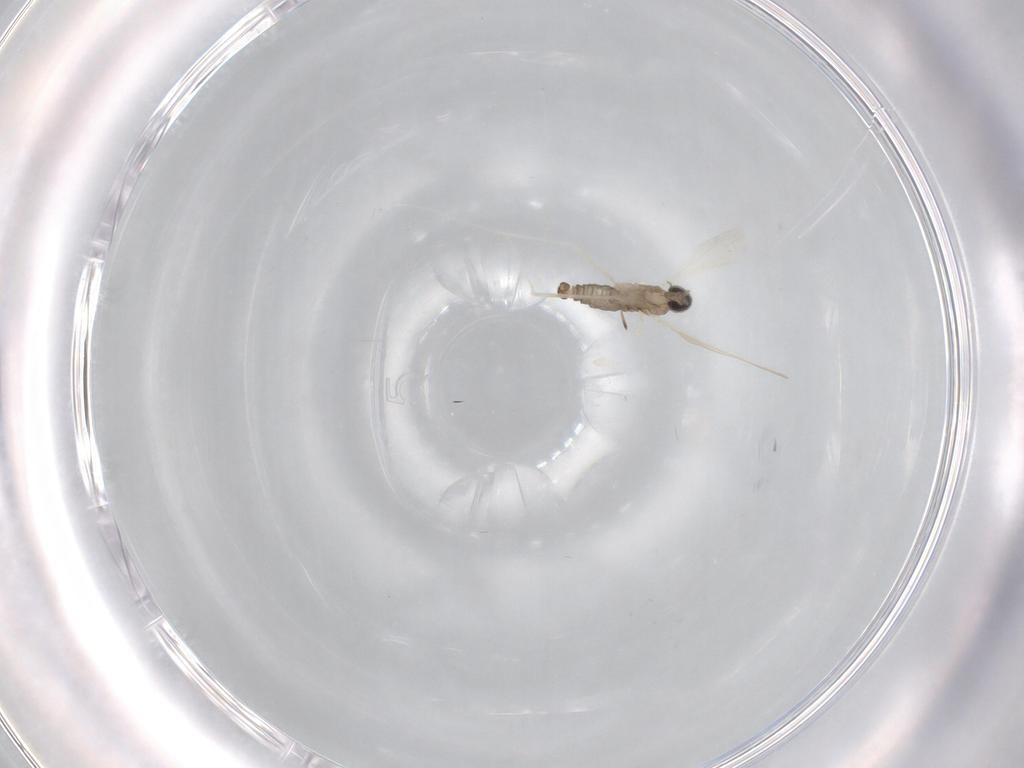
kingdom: Animalia
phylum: Arthropoda
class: Insecta
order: Diptera
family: Cecidomyiidae
